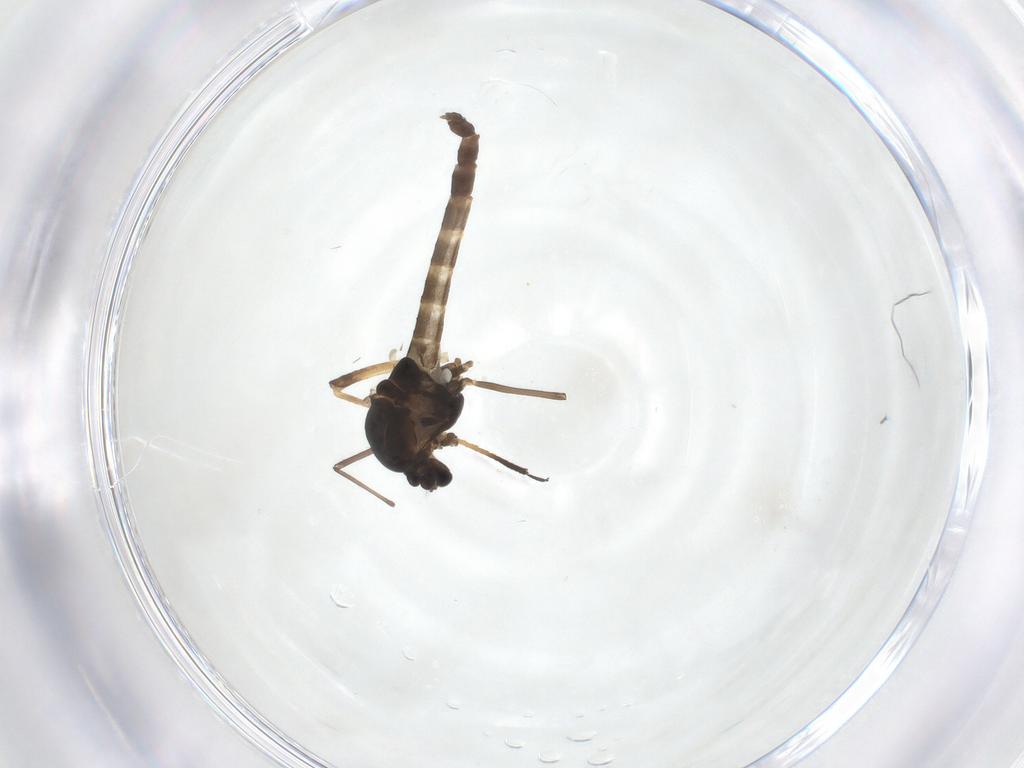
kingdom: Animalia
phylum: Arthropoda
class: Insecta
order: Diptera
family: Chironomidae
